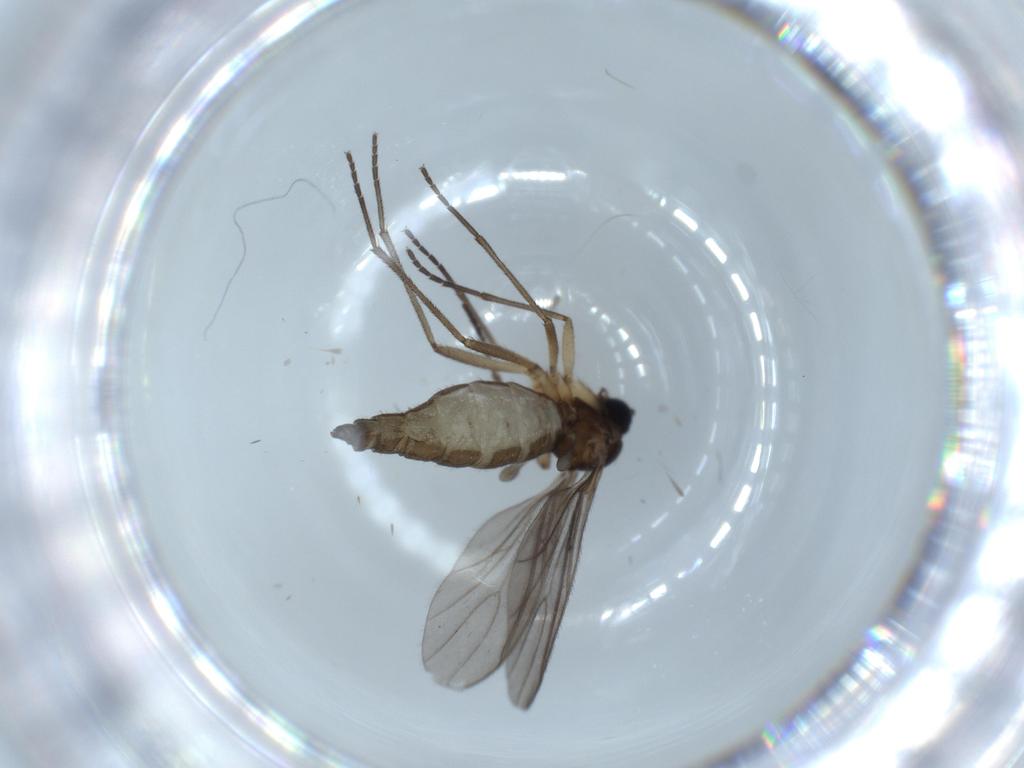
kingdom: Animalia
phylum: Arthropoda
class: Insecta
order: Diptera
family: Sciaridae
